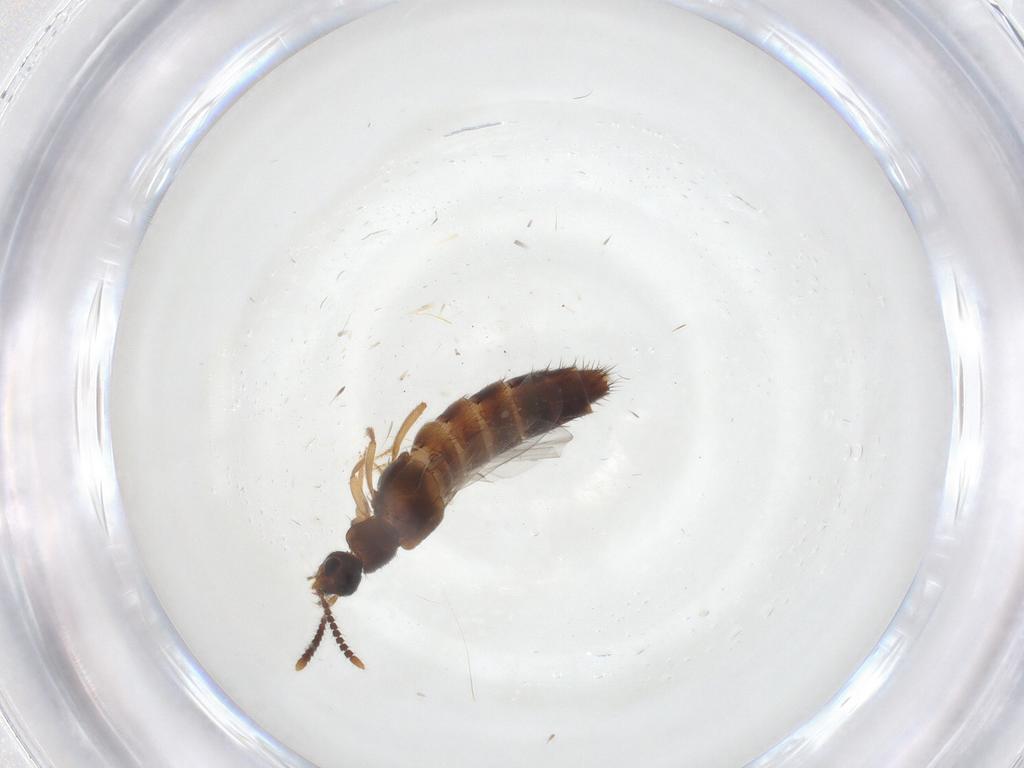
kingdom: Animalia
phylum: Arthropoda
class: Insecta
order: Coleoptera
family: Staphylinidae
